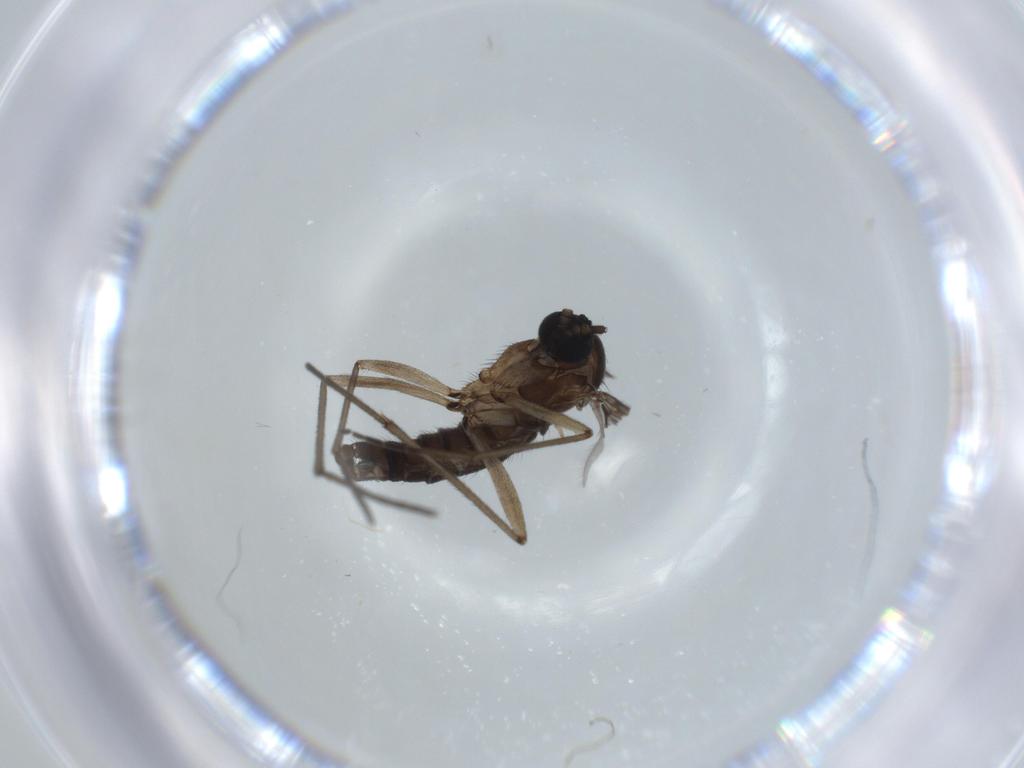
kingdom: Animalia
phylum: Arthropoda
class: Insecta
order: Diptera
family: Sciaridae
